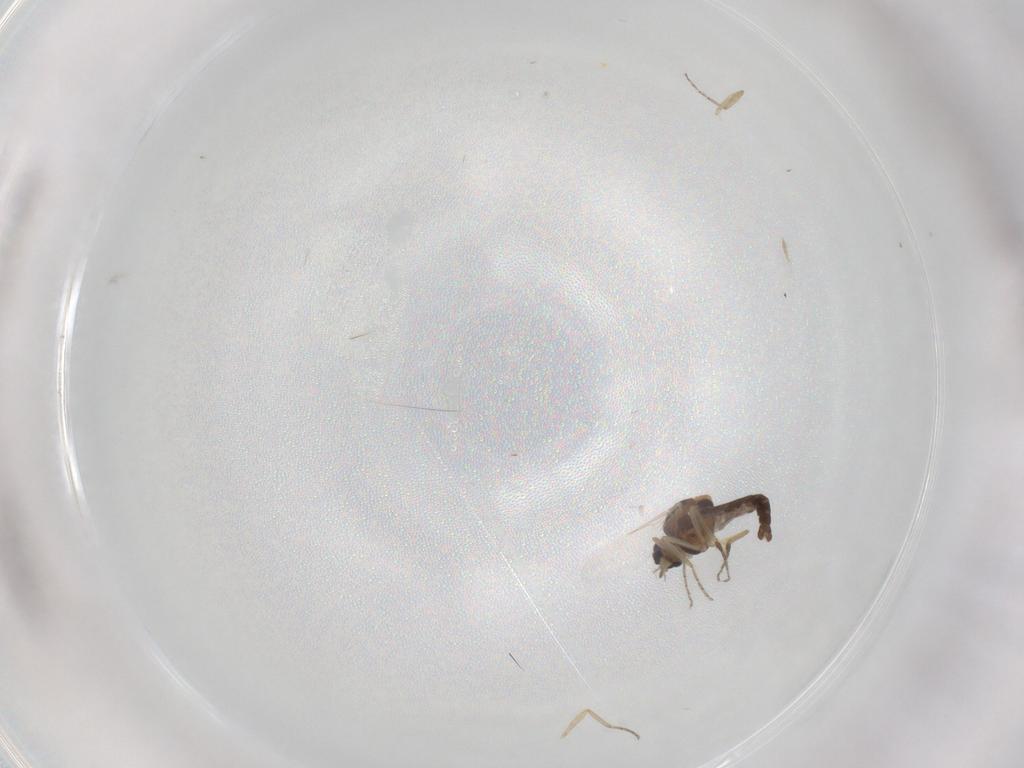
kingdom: Animalia
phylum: Arthropoda
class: Insecta
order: Diptera
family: Ceratopogonidae
